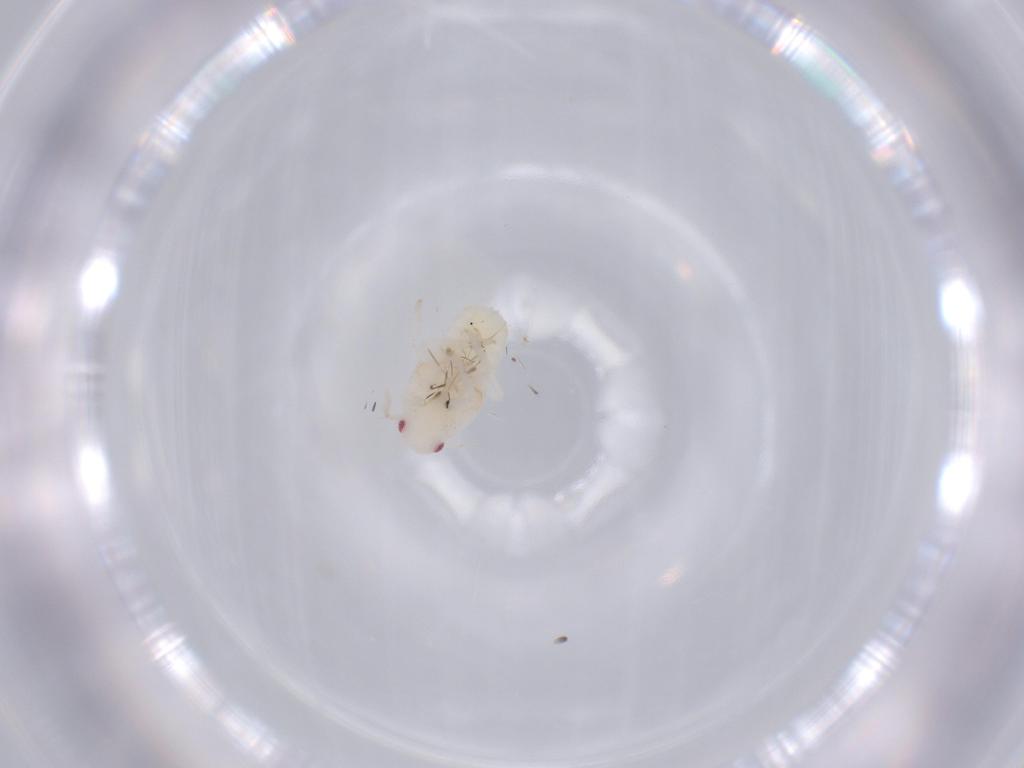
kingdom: Animalia
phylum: Arthropoda
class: Insecta
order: Hemiptera
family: Flatidae
